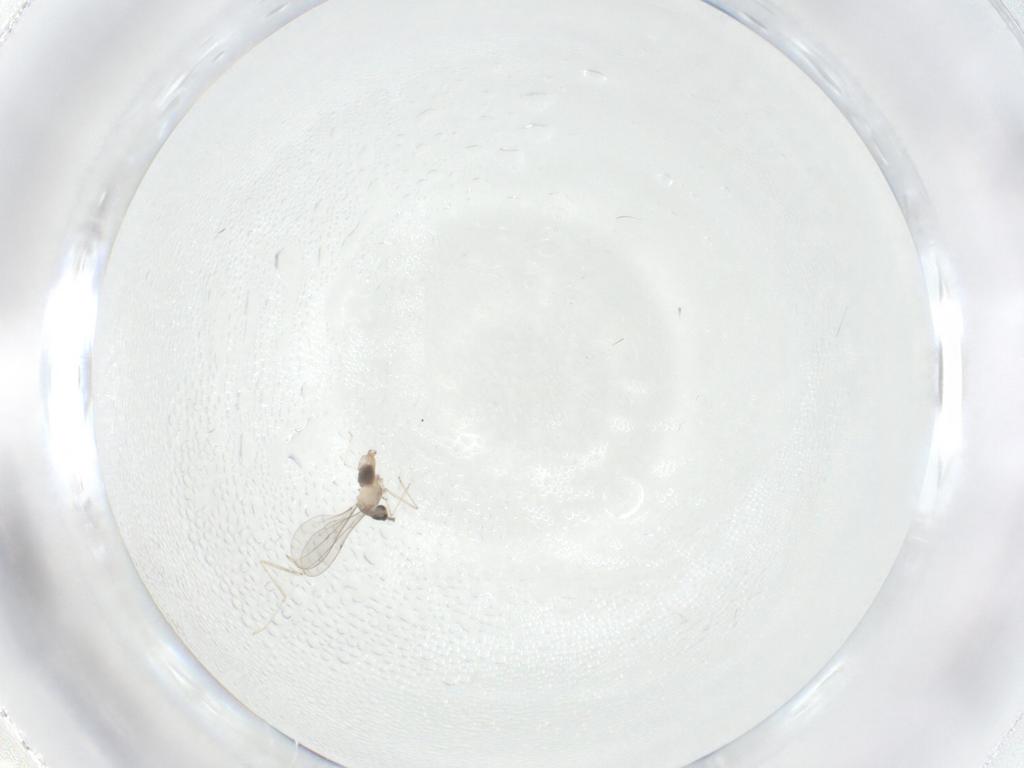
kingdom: Animalia
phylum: Arthropoda
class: Insecta
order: Diptera
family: Cecidomyiidae
